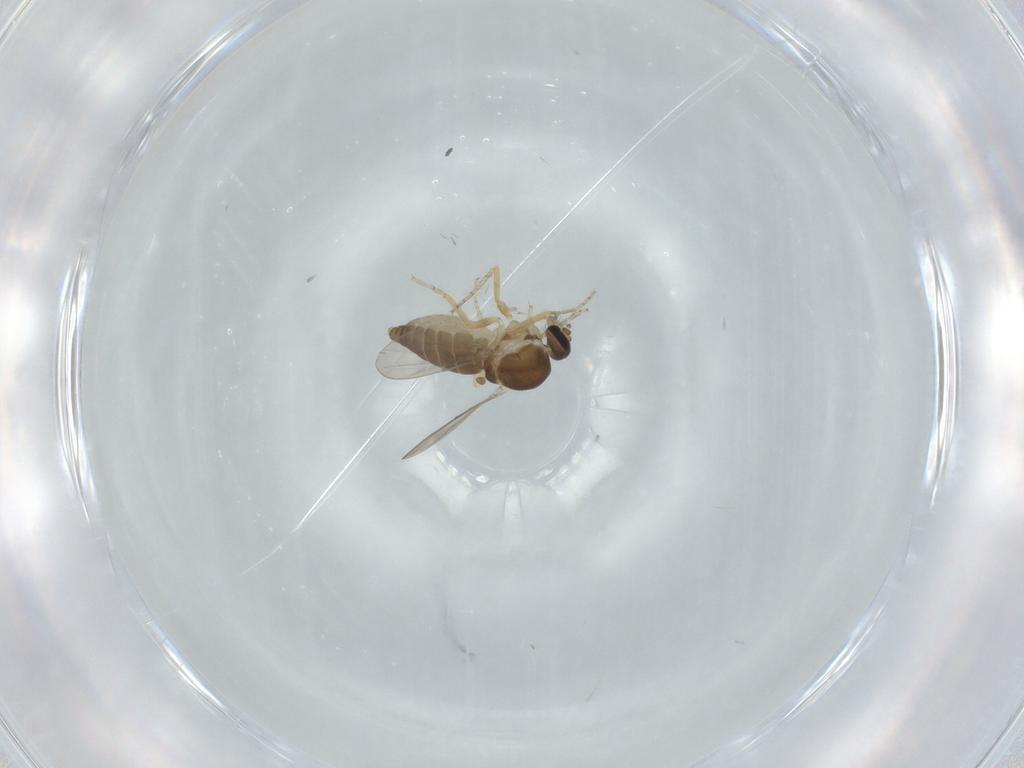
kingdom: Animalia
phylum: Arthropoda
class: Insecta
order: Diptera
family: Ceratopogonidae
